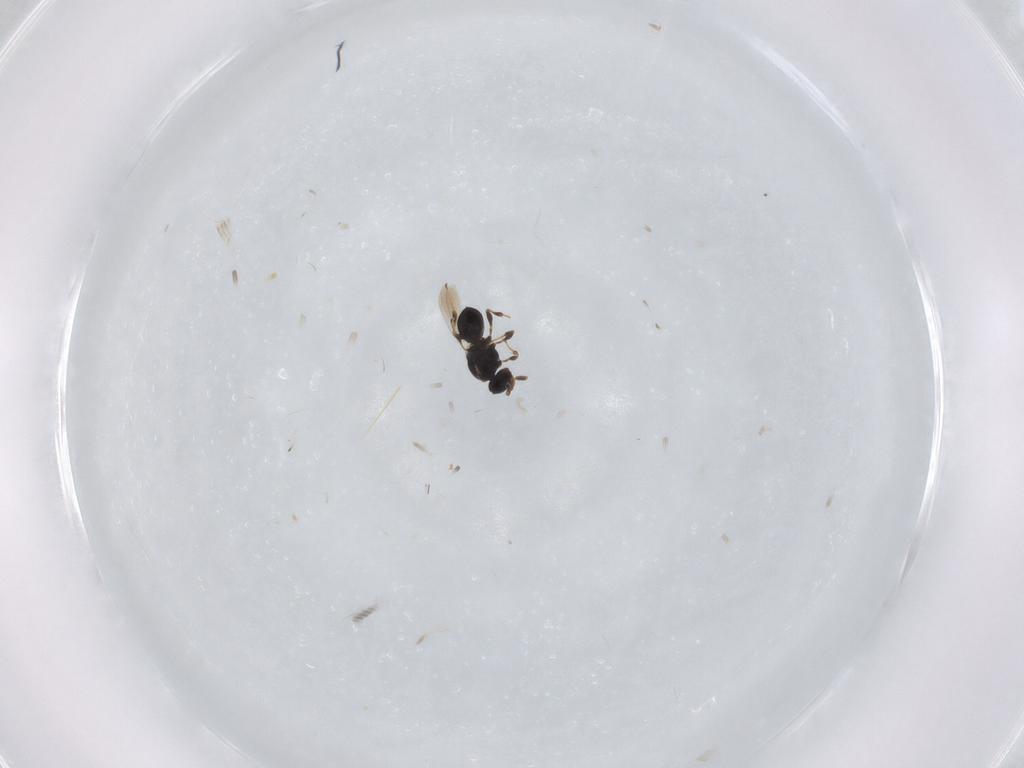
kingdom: Animalia
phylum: Arthropoda
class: Insecta
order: Hymenoptera
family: Platygastridae
